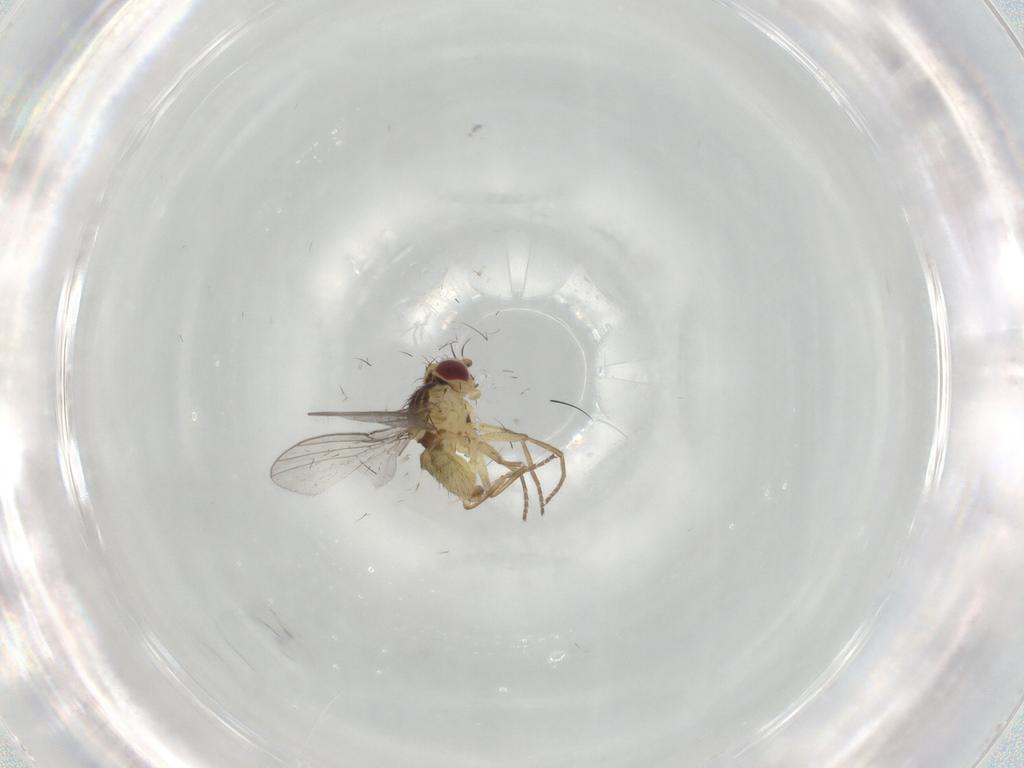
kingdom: Animalia
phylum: Arthropoda
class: Insecta
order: Diptera
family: Agromyzidae
